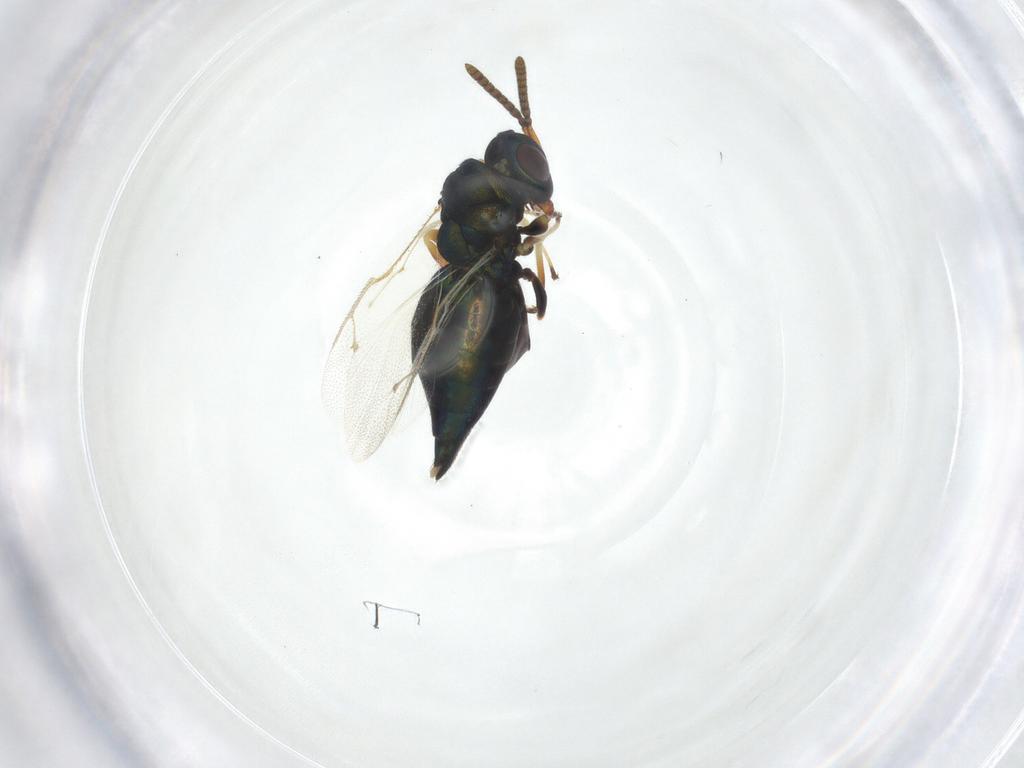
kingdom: Animalia
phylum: Arthropoda
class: Insecta
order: Hymenoptera
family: Pteromalidae
